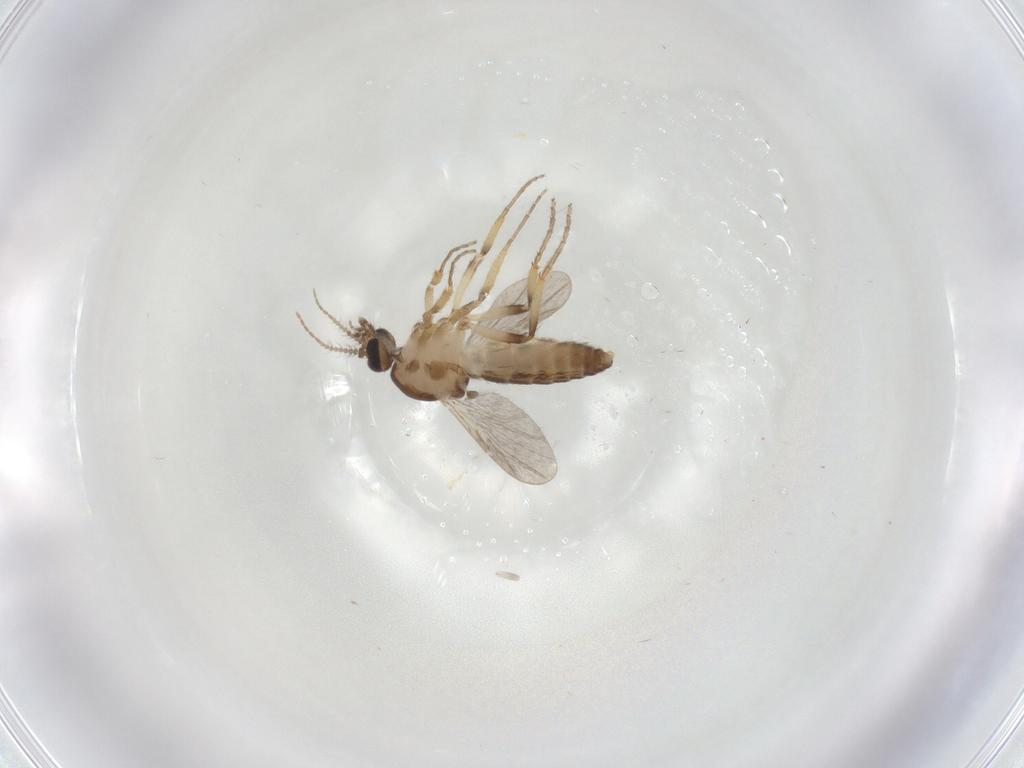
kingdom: Animalia
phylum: Arthropoda
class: Insecta
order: Diptera
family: Ceratopogonidae
